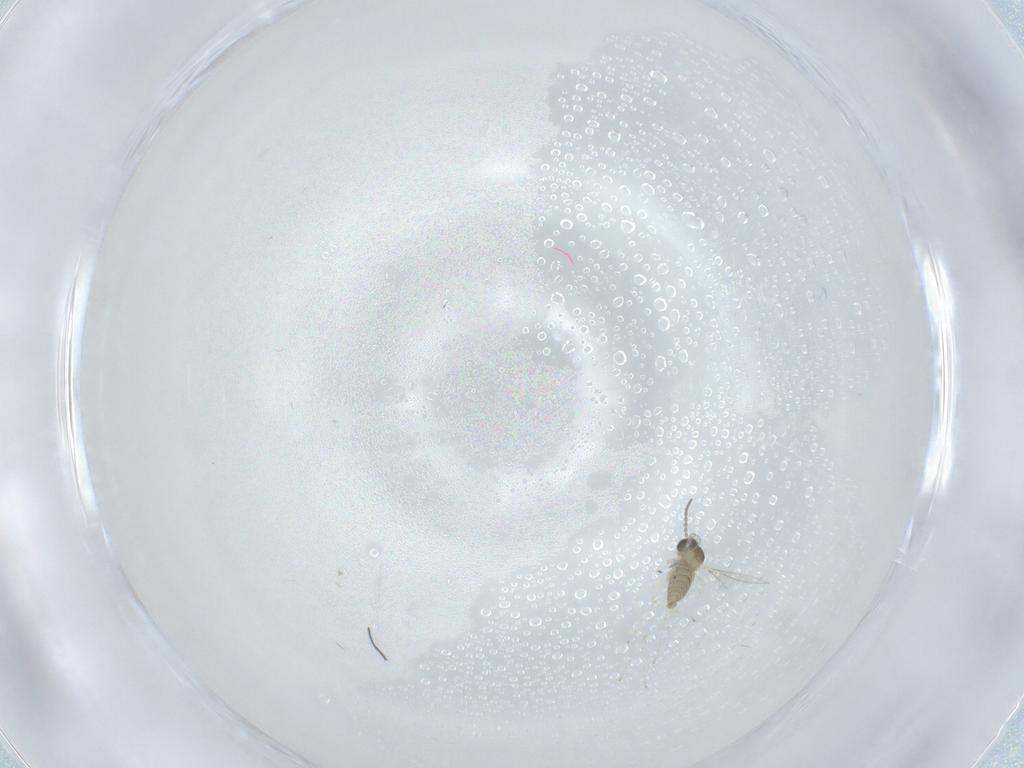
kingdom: Animalia
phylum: Arthropoda
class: Insecta
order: Diptera
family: Cecidomyiidae
